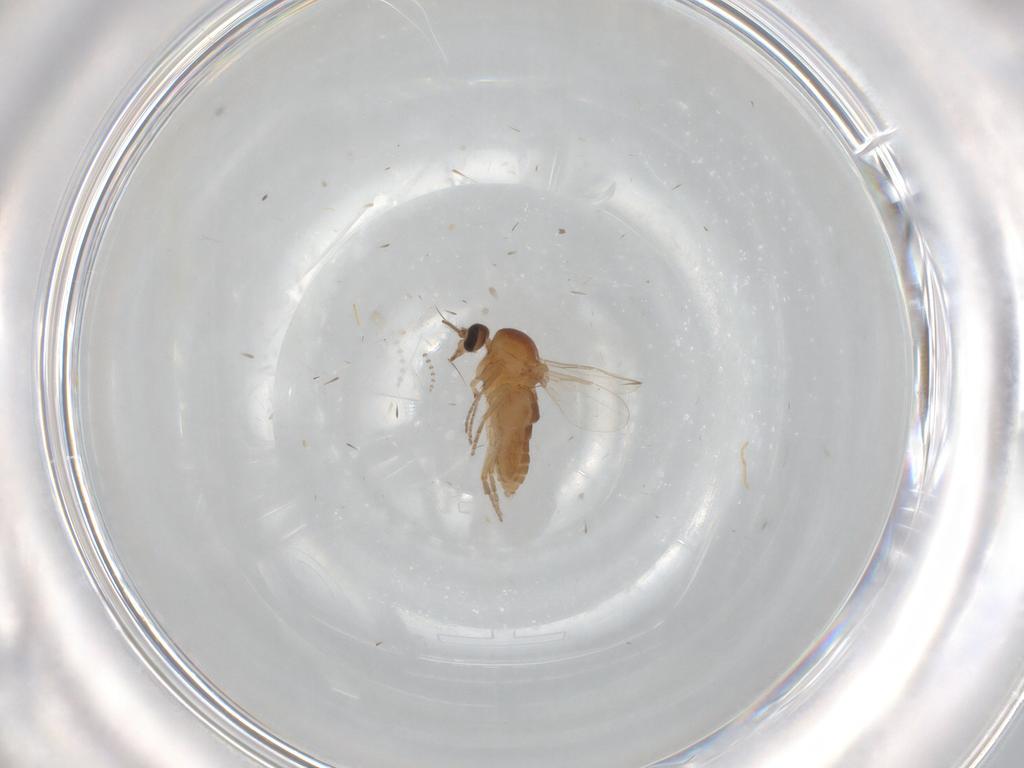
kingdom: Animalia
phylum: Arthropoda
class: Insecta
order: Diptera
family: Ceratopogonidae
